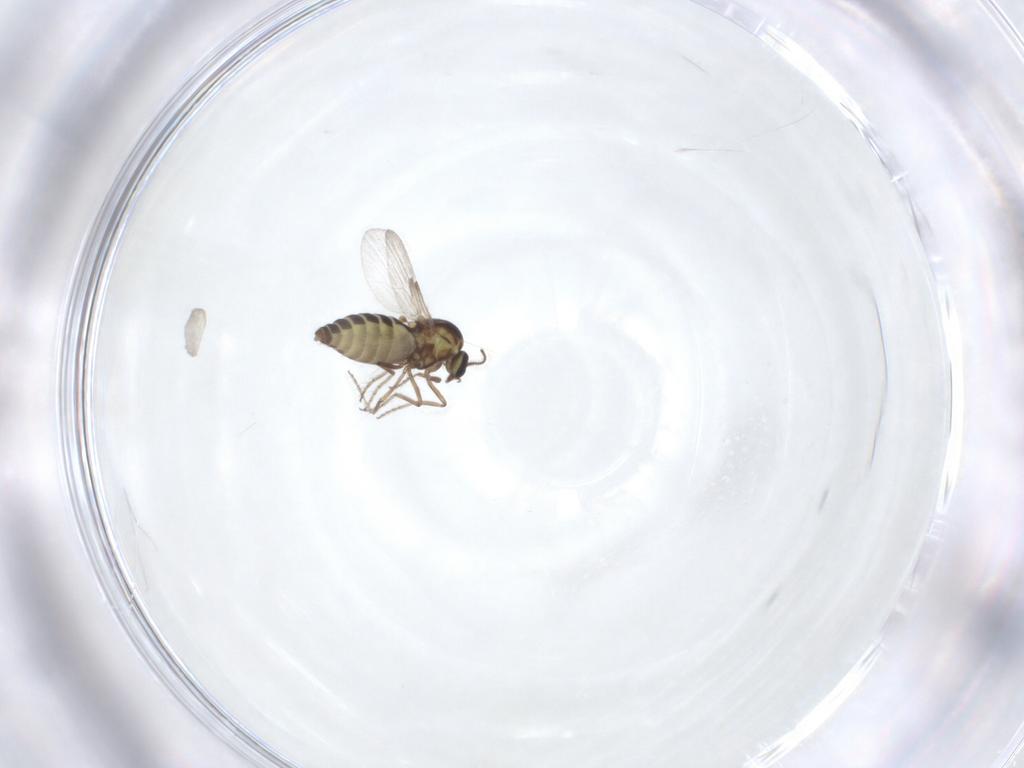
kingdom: Animalia
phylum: Arthropoda
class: Insecta
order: Diptera
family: Ceratopogonidae
